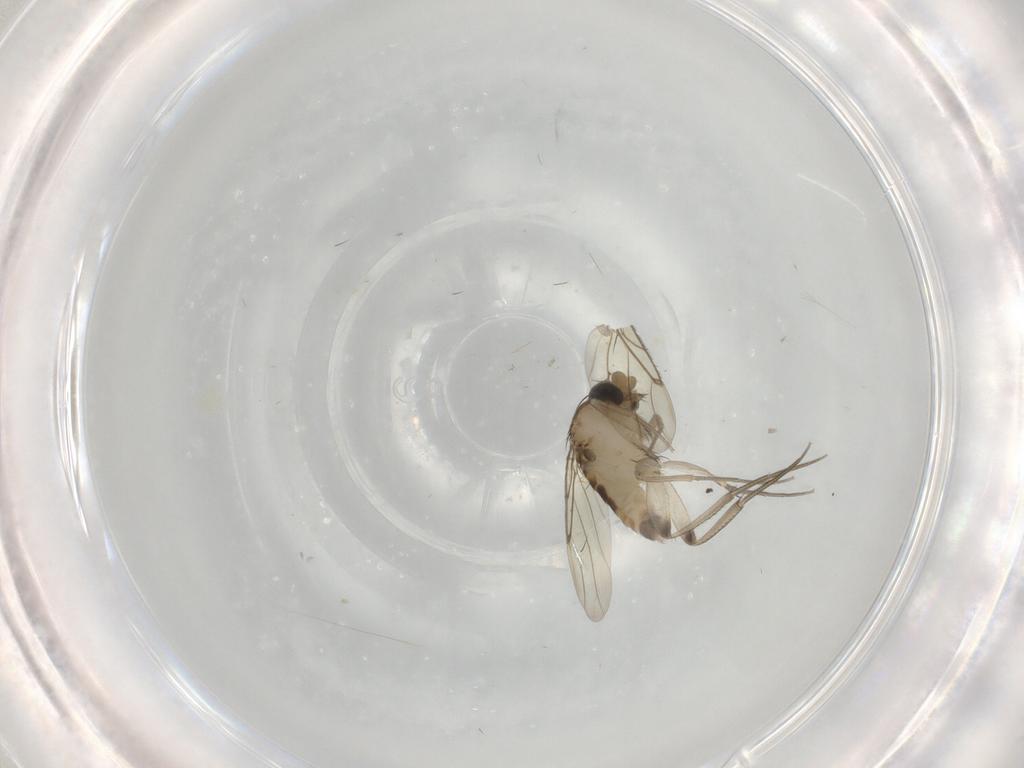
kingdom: Animalia
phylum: Arthropoda
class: Insecta
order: Diptera
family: Phoridae
